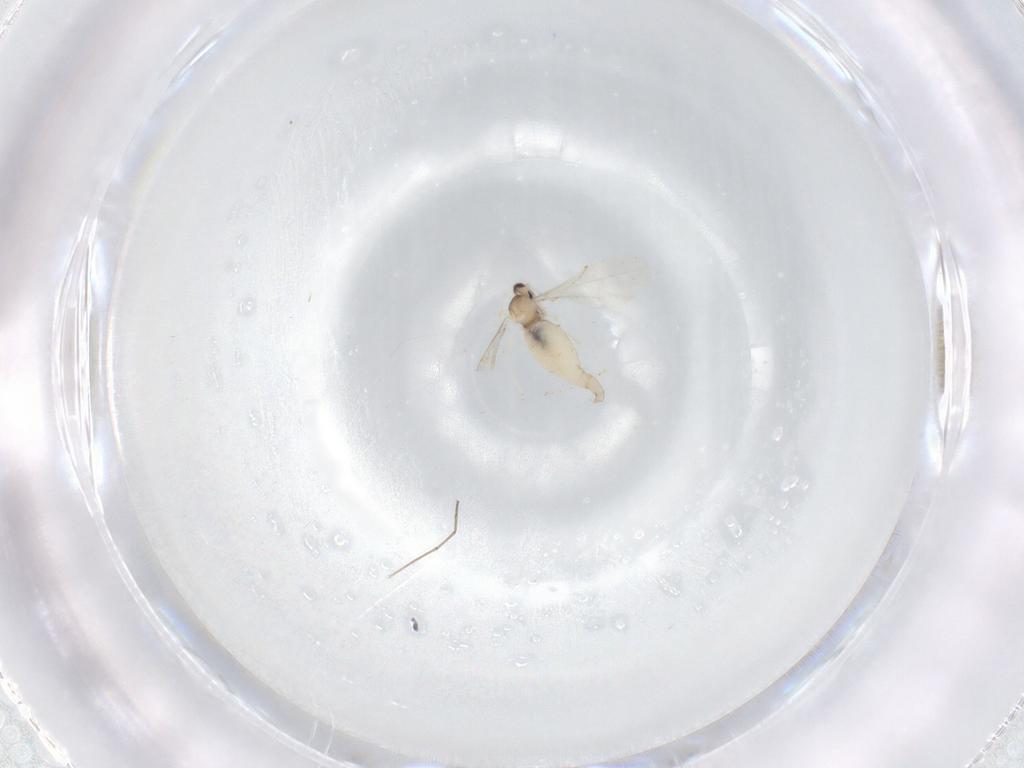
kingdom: Animalia
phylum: Arthropoda
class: Insecta
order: Diptera
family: Cecidomyiidae
